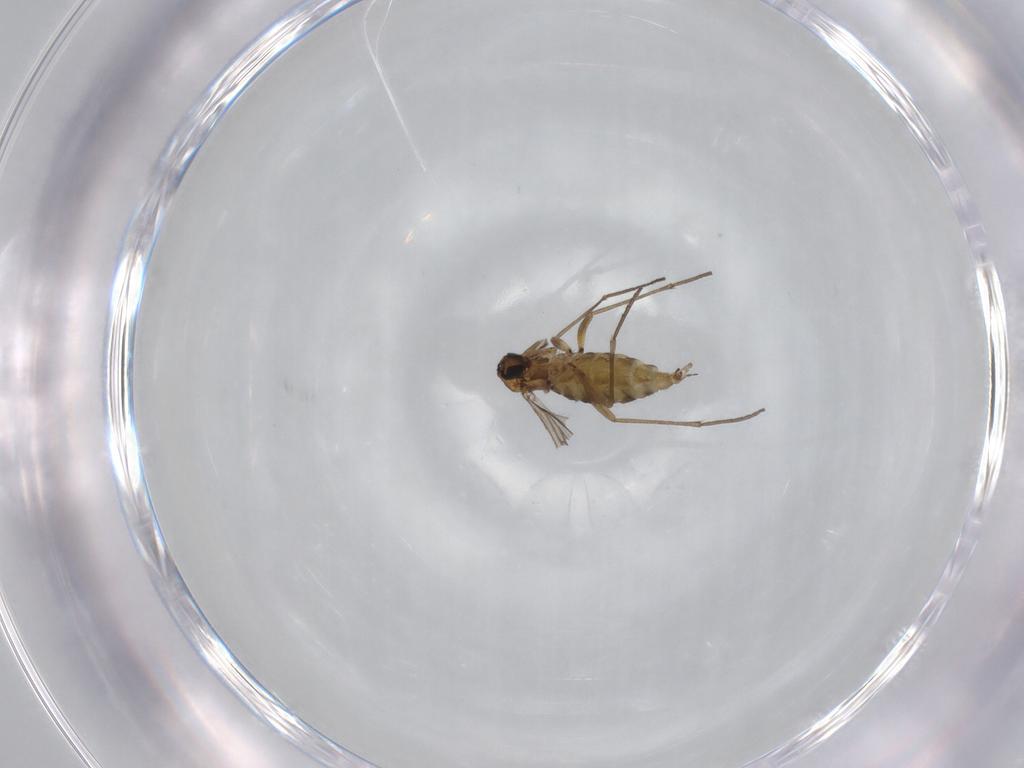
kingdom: Animalia
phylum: Arthropoda
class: Insecta
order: Diptera
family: Drosophilidae
